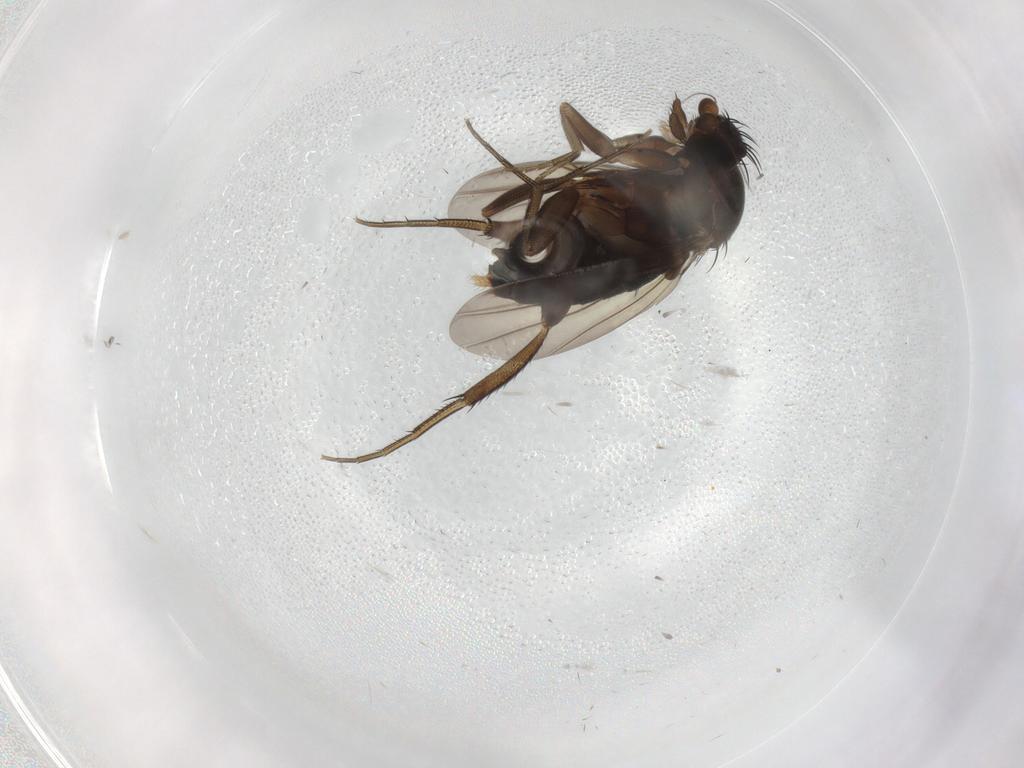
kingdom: Animalia
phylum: Arthropoda
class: Insecta
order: Diptera
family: Phoridae
